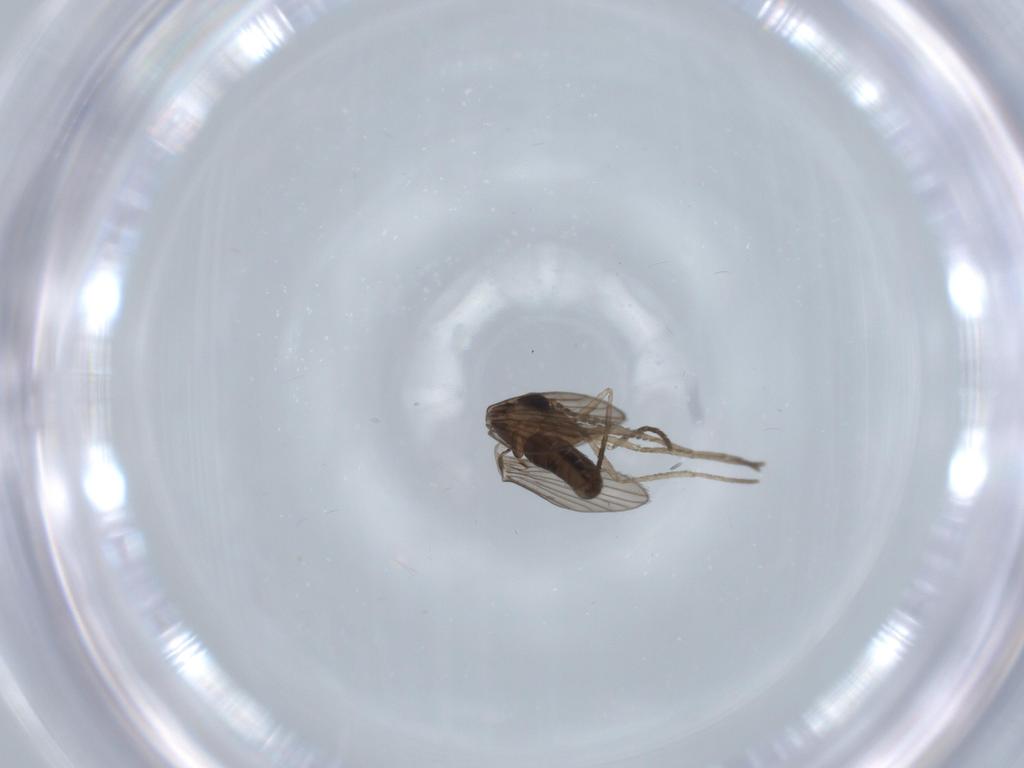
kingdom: Animalia
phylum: Arthropoda
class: Insecta
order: Diptera
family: Psychodidae
